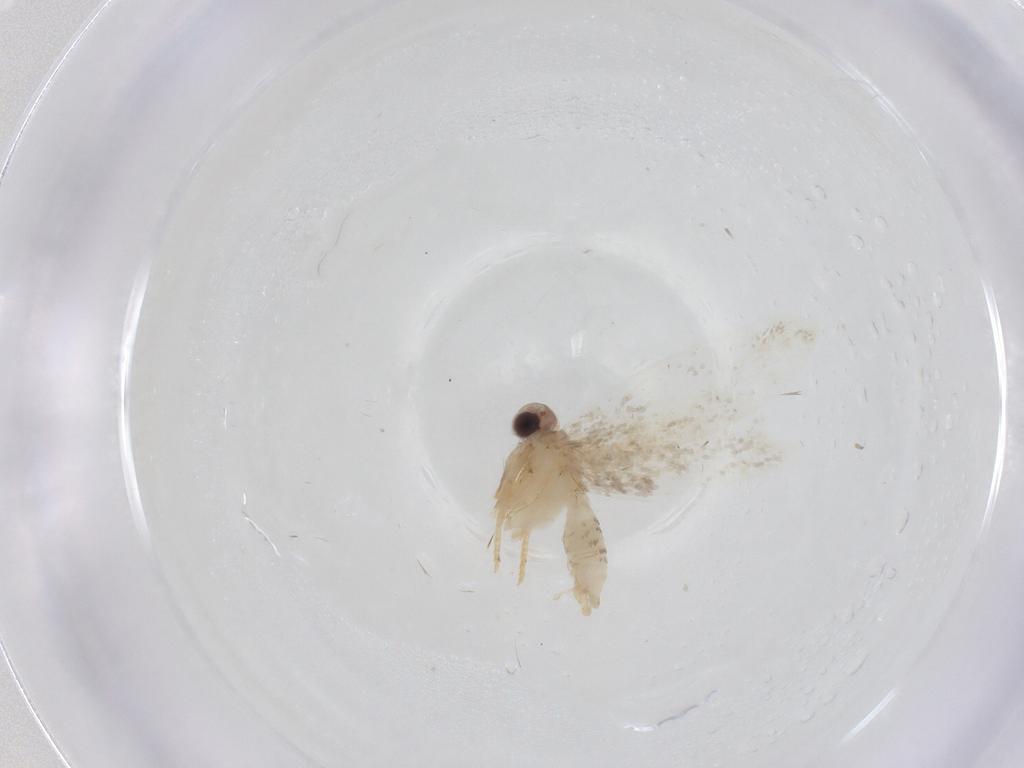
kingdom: Animalia
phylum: Arthropoda
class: Insecta
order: Lepidoptera
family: Psychidae
